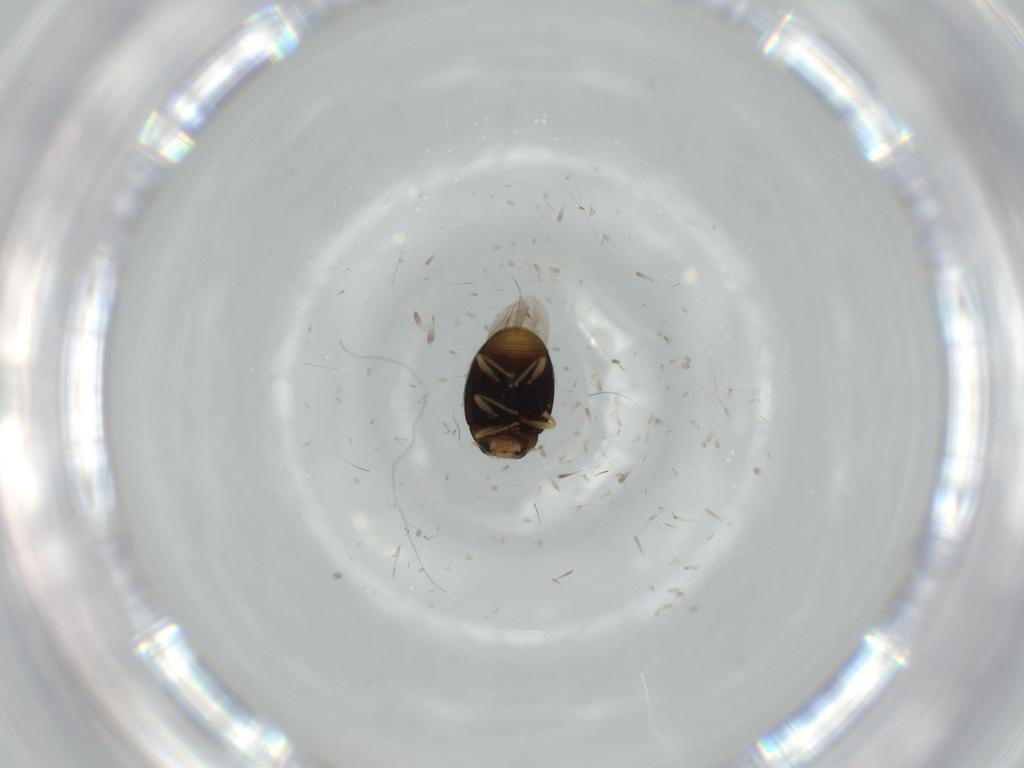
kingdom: Animalia
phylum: Arthropoda
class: Insecta
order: Coleoptera
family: Coccinellidae
